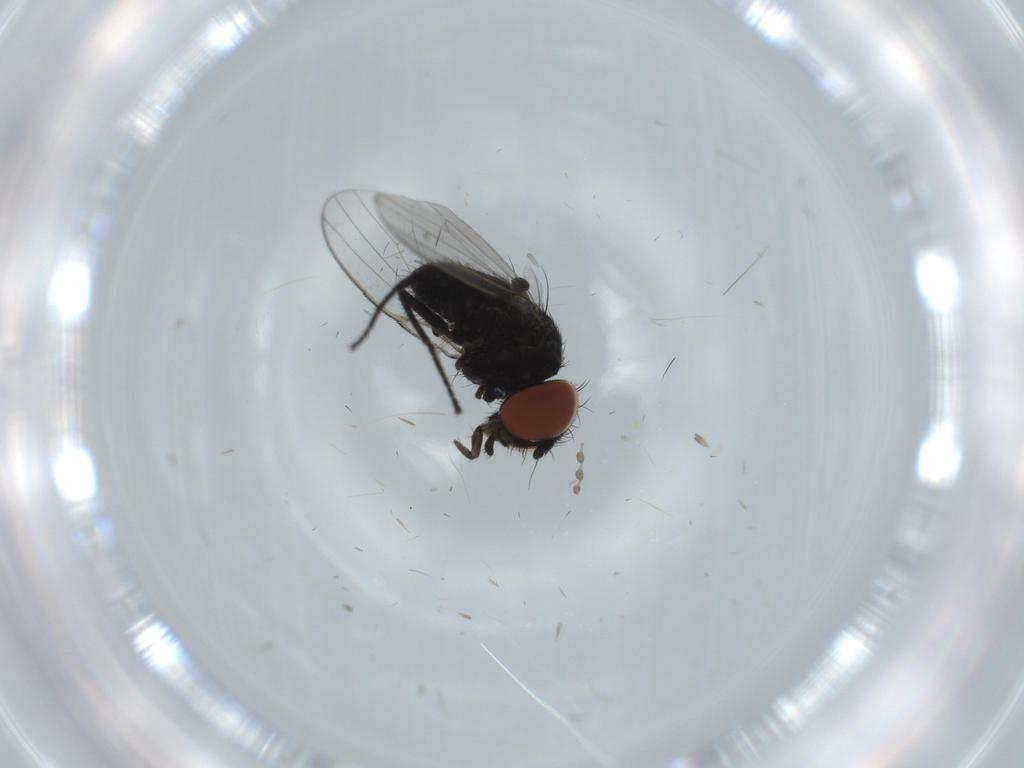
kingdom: Animalia
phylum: Arthropoda
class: Insecta
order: Diptera
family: Milichiidae
